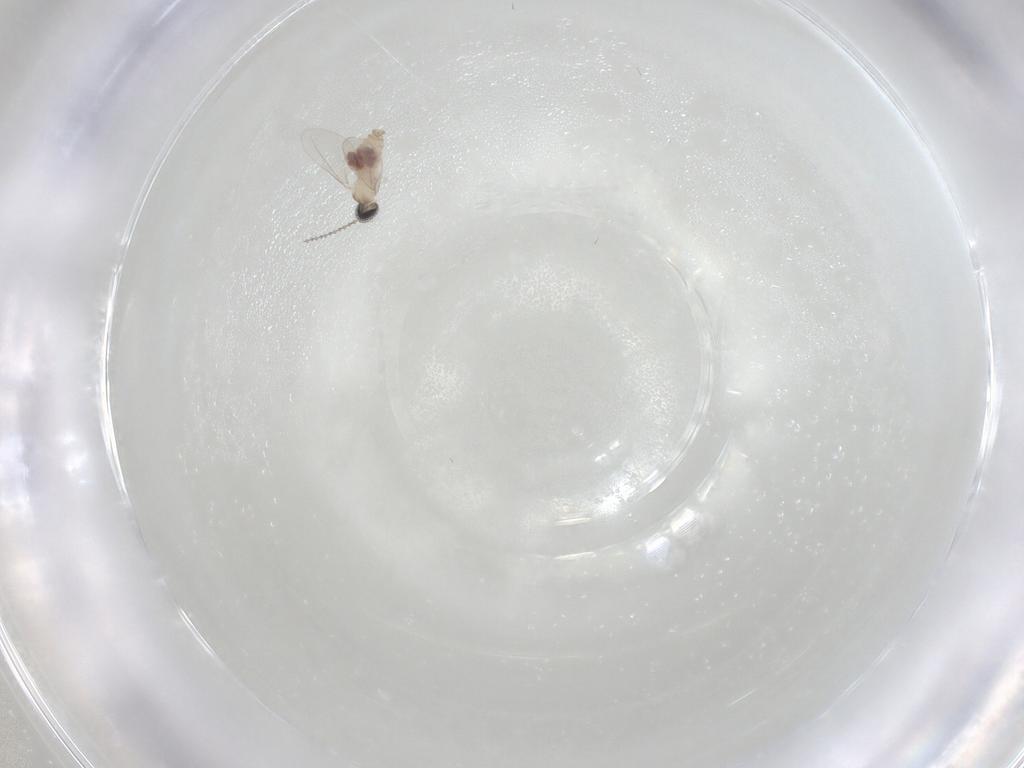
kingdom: Animalia
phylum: Arthropoda
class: Insecta
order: Diptera
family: Cecidomyiidae
